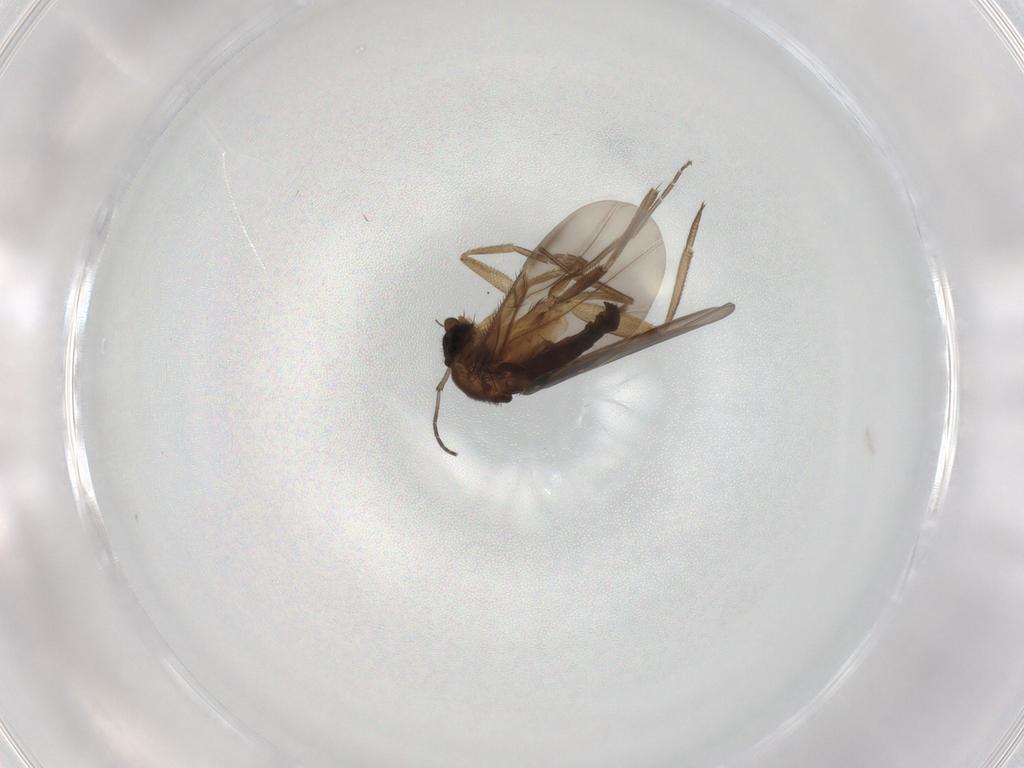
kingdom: Animalia
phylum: Arthropoda
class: Insecta
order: Diptera
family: Phoridae
